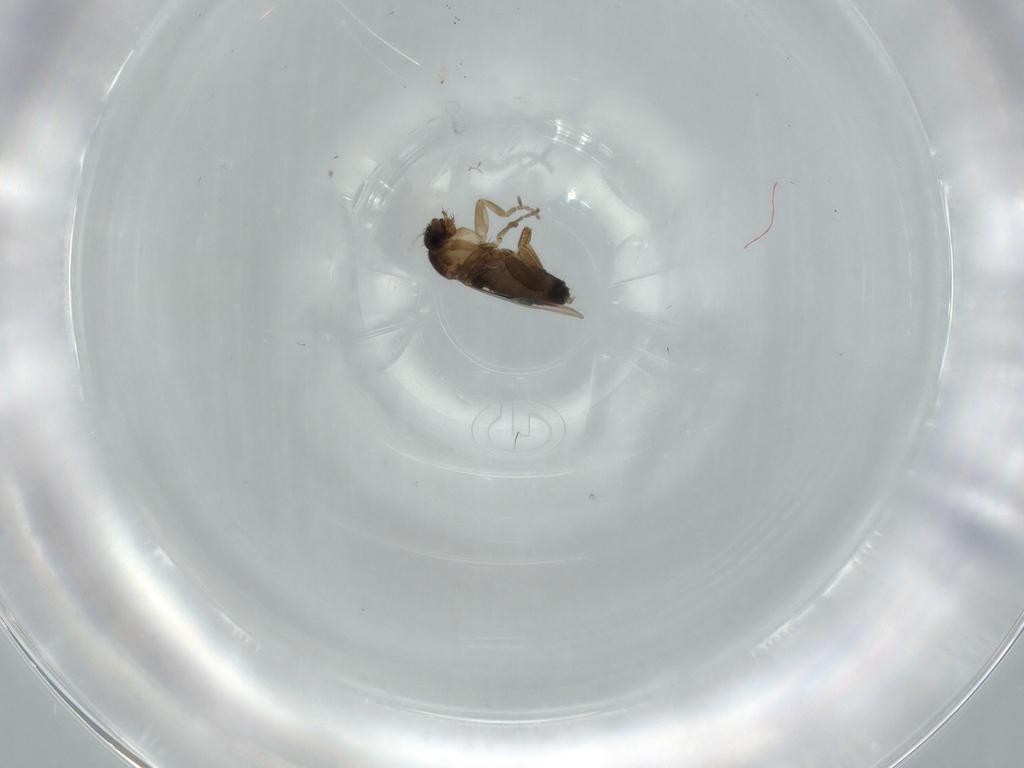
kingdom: Animalia
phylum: Arthropoda
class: Insecta
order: Diptera
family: Phoridae
